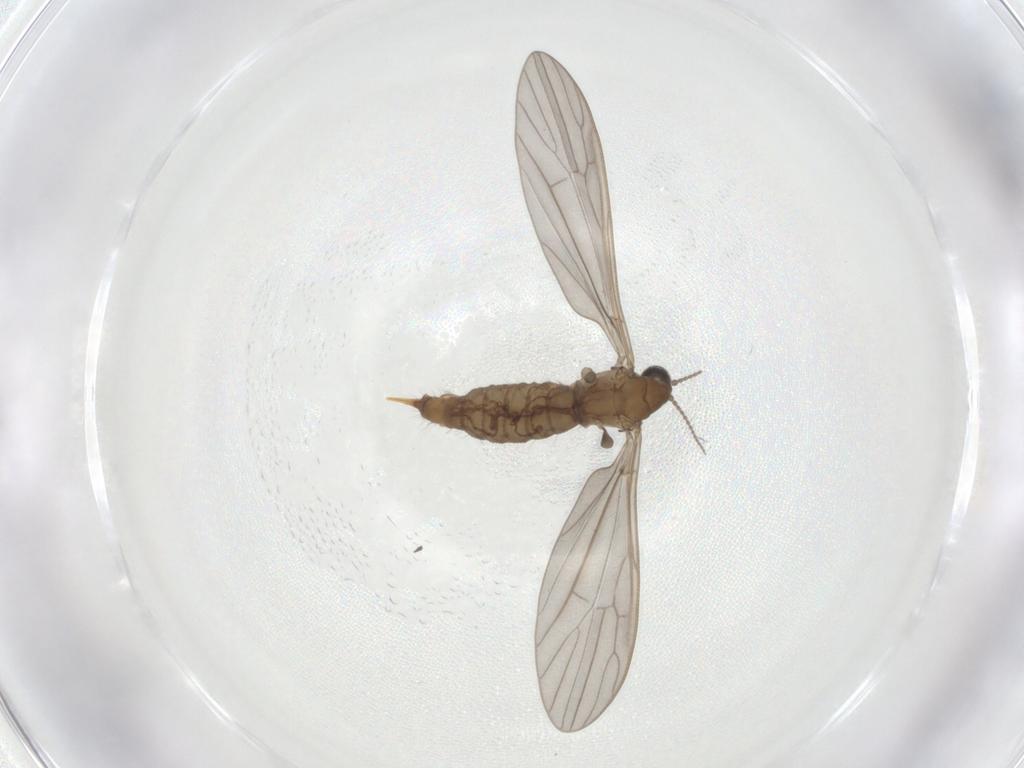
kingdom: Animalia
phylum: Arthropoda
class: Insecta
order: Diptera
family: Limoniidae
